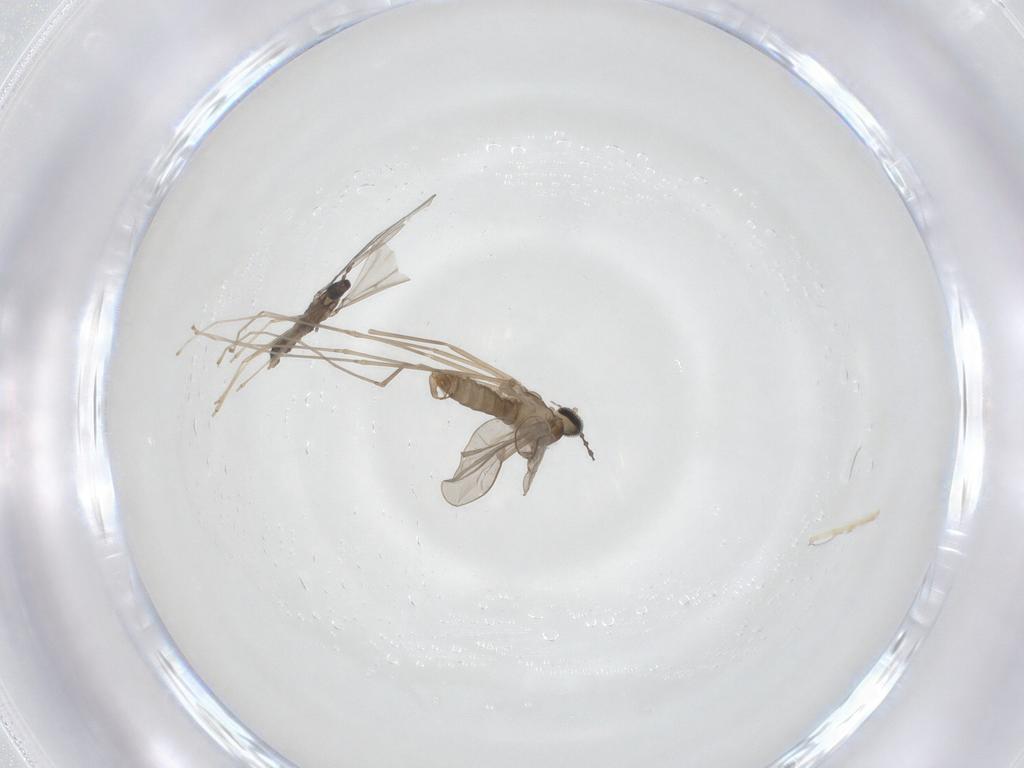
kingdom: Animalia
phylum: Arthropoda
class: Insecta
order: Diptera
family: Cecidomyiidae
